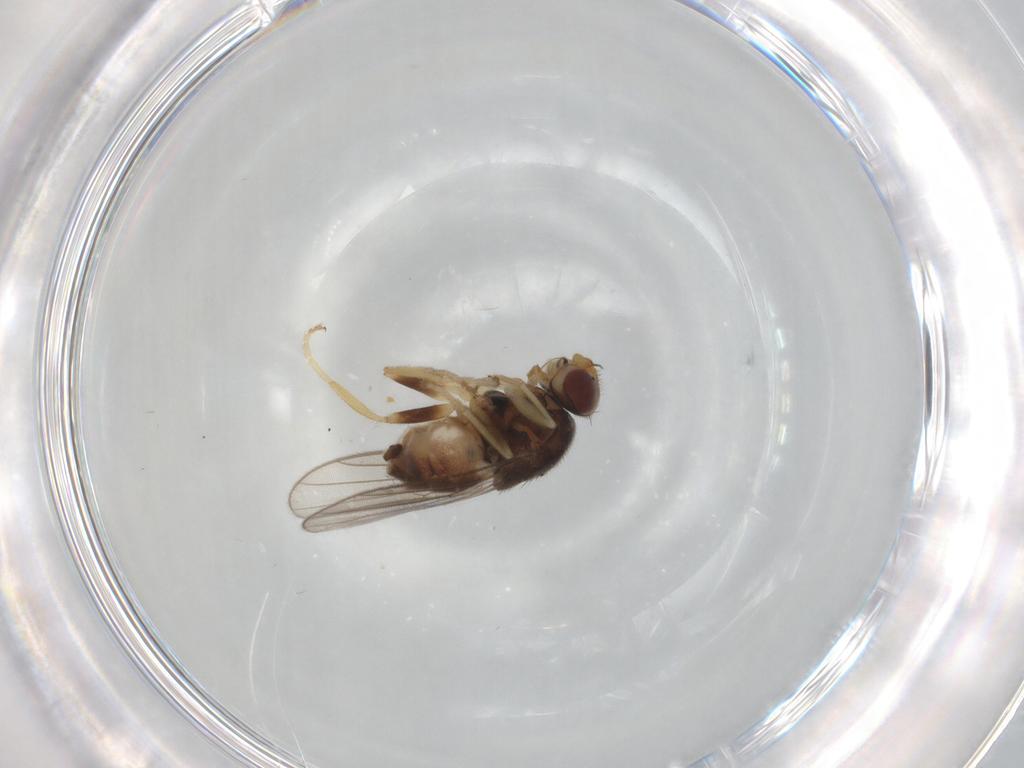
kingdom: Animalia
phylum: Arthropoda
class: Insecta
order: Diptera
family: Chloropidae
